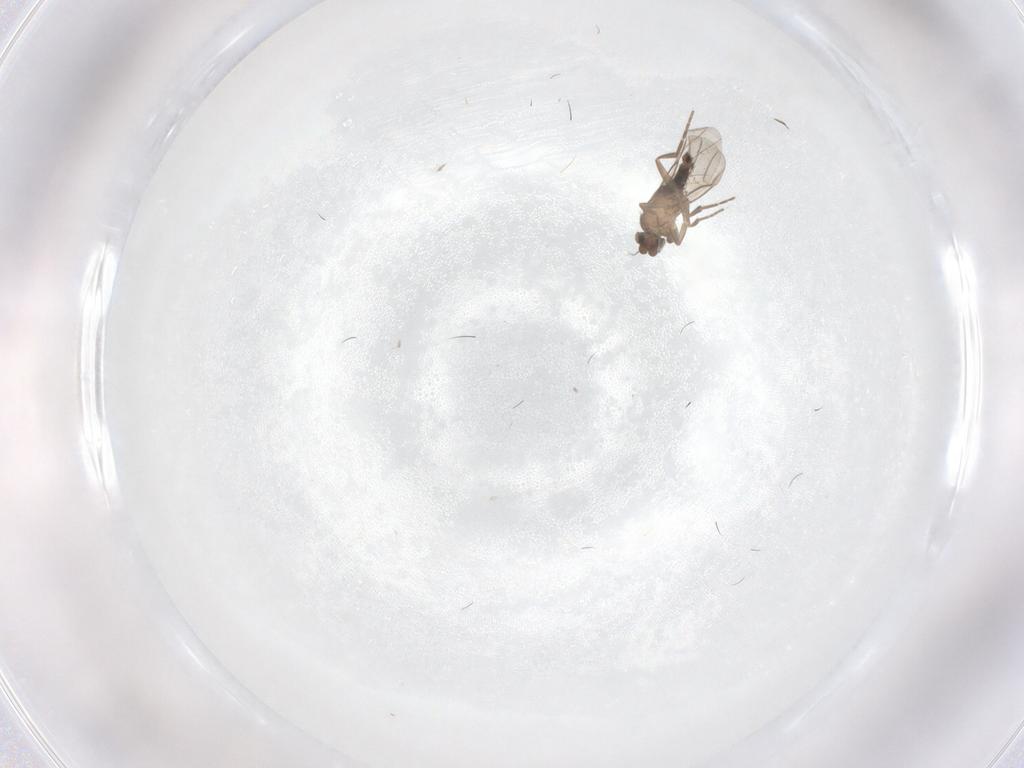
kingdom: Animalia
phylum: Arthropoda
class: Insecta
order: Diptera
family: Phoridae
